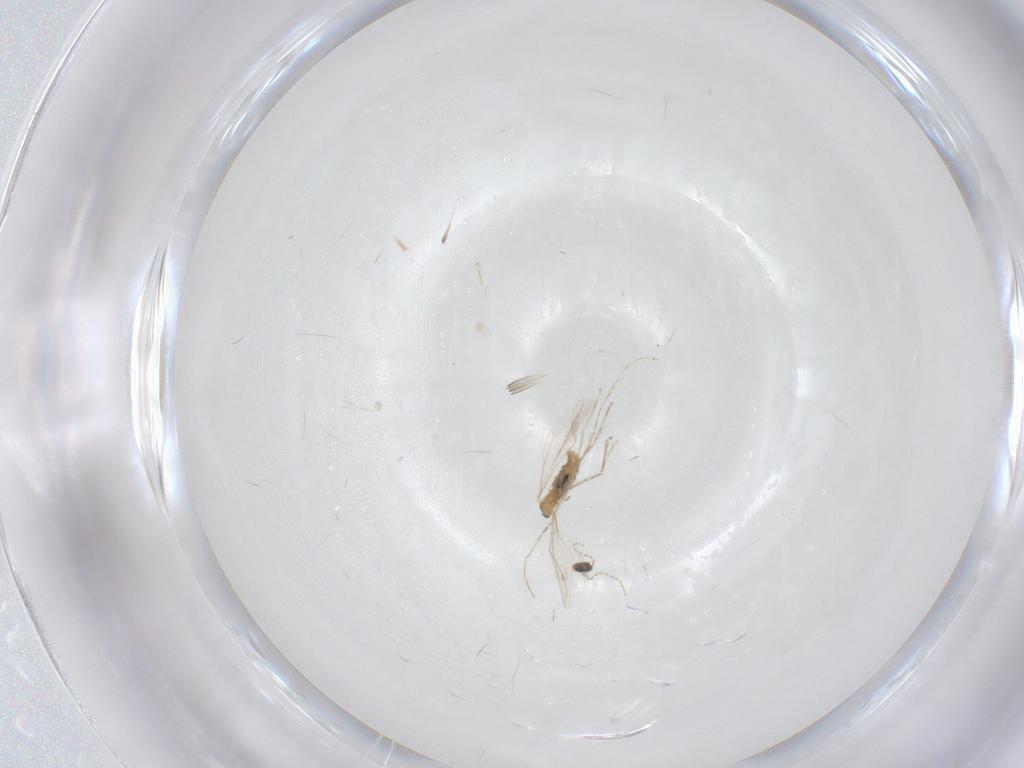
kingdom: Animalia
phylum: Arthropoda
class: Insecta
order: Diptera
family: Cecidomyiidae
